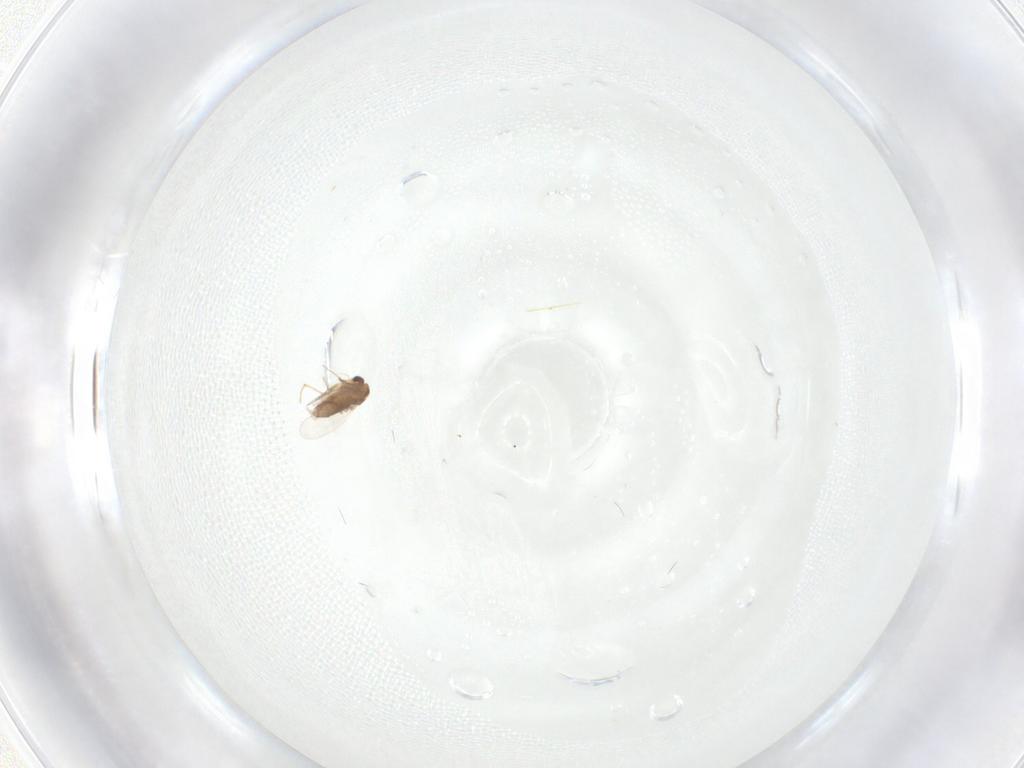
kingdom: Animalia
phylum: Arthropoda
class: Insecta
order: Diptera
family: Chironomidae
